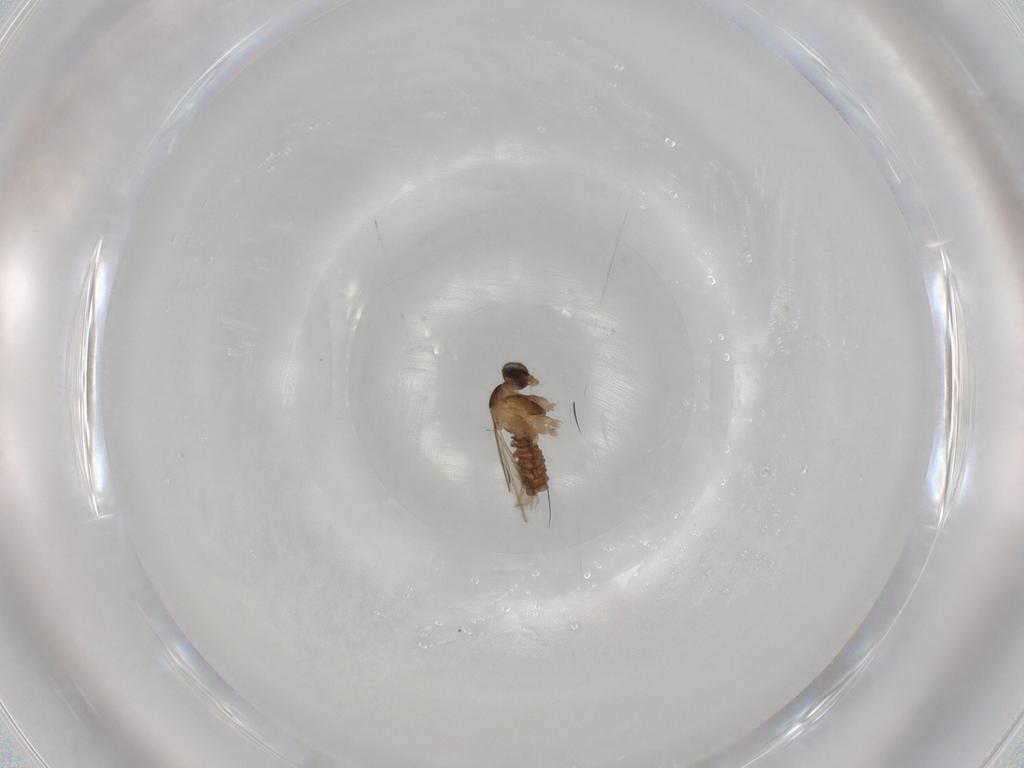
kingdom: Animalia
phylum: Arthropoda
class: Insecta
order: Diptera
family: Cecidomyiidae
